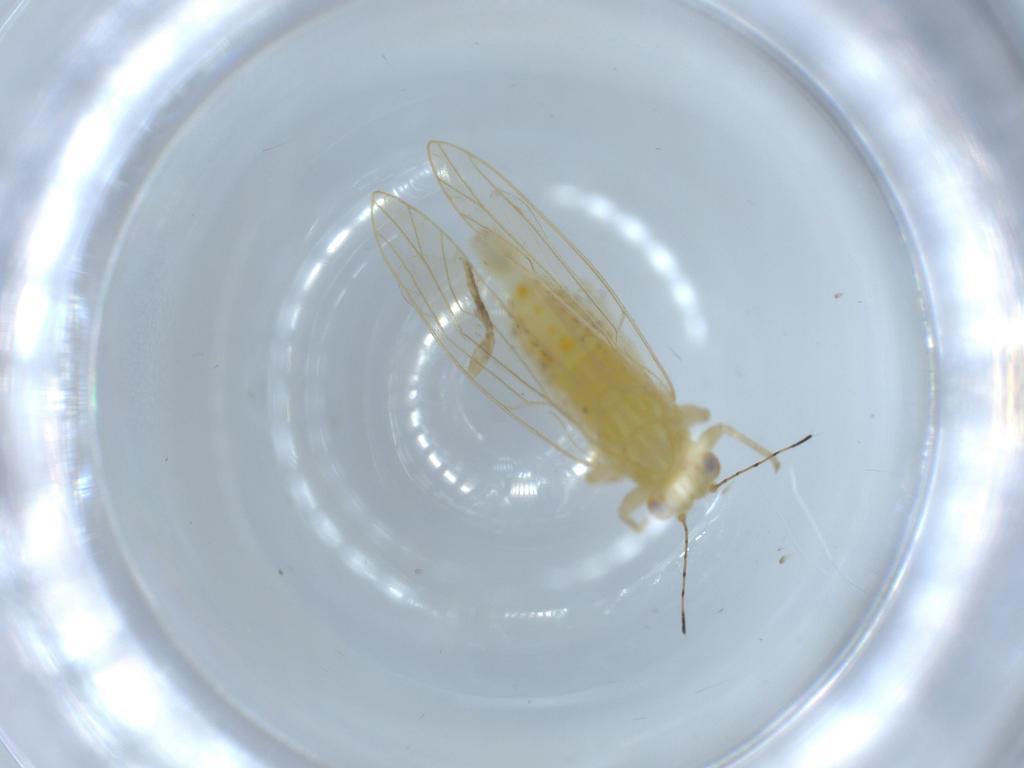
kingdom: Animalia
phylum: Arthropoda
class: Insecta
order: Hemiptera
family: Triozidae
